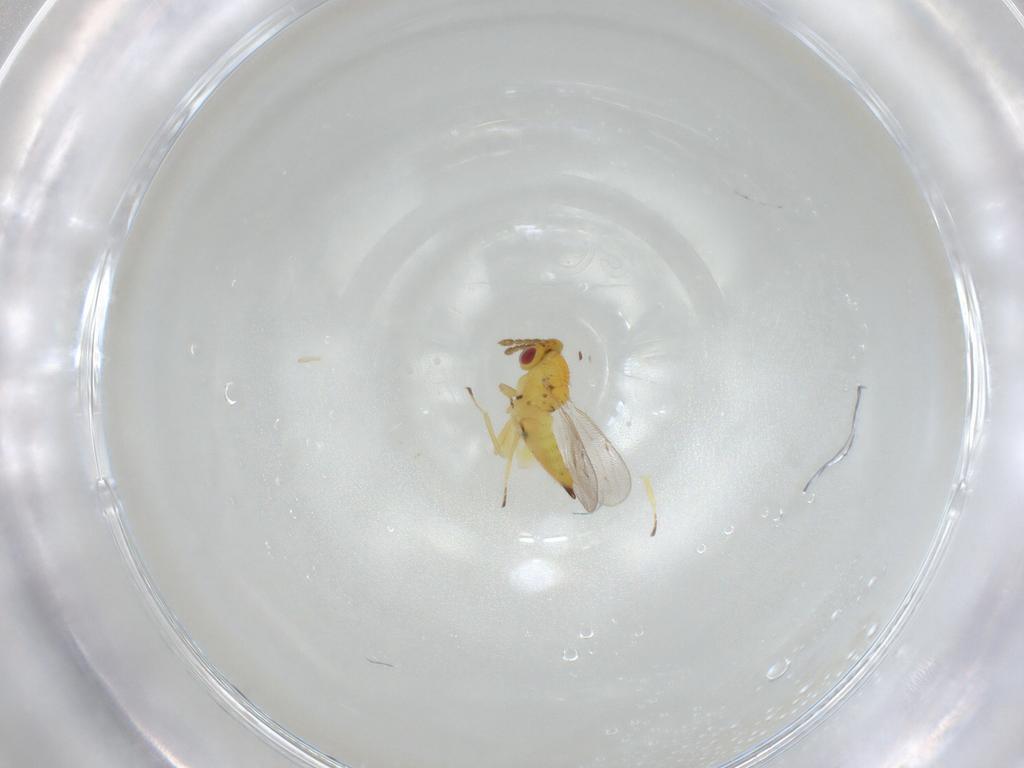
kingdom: Animalia
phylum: Arthropoda
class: Insecta
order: Hymenoptera
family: Eulophidae
